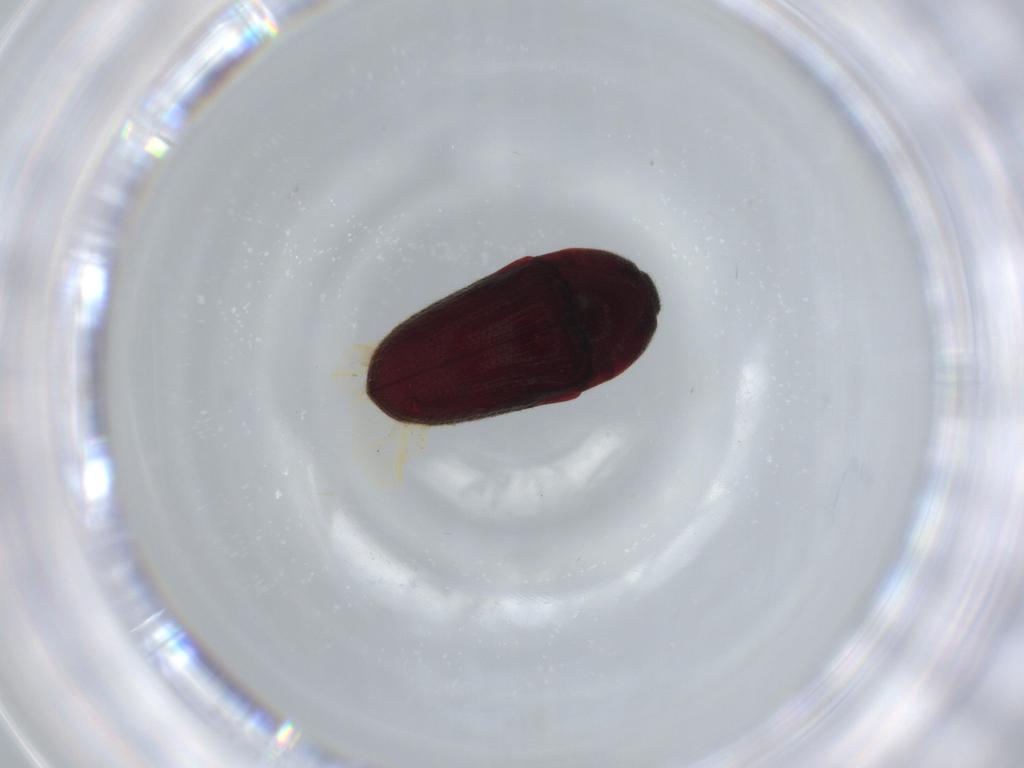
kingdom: Animalia
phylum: Arthropoda
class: Insecta
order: Coleoptera
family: Throscidae
